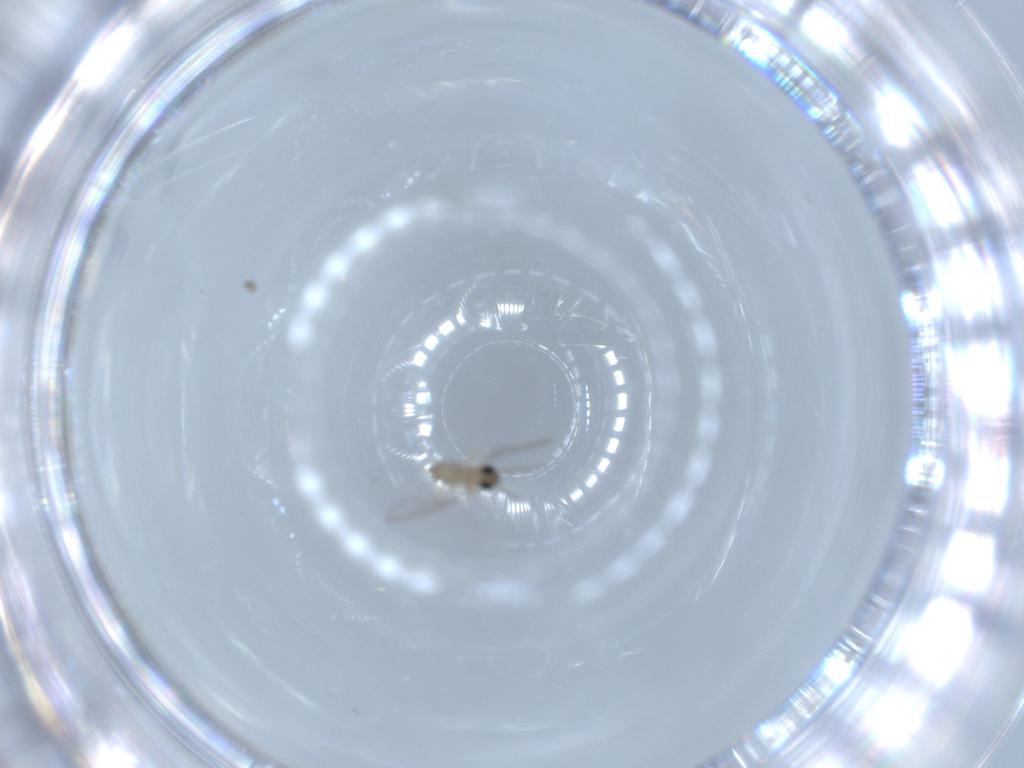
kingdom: Animalia
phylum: Arthropoda
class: Insecta
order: Diptera
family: Cecidomyiidae
